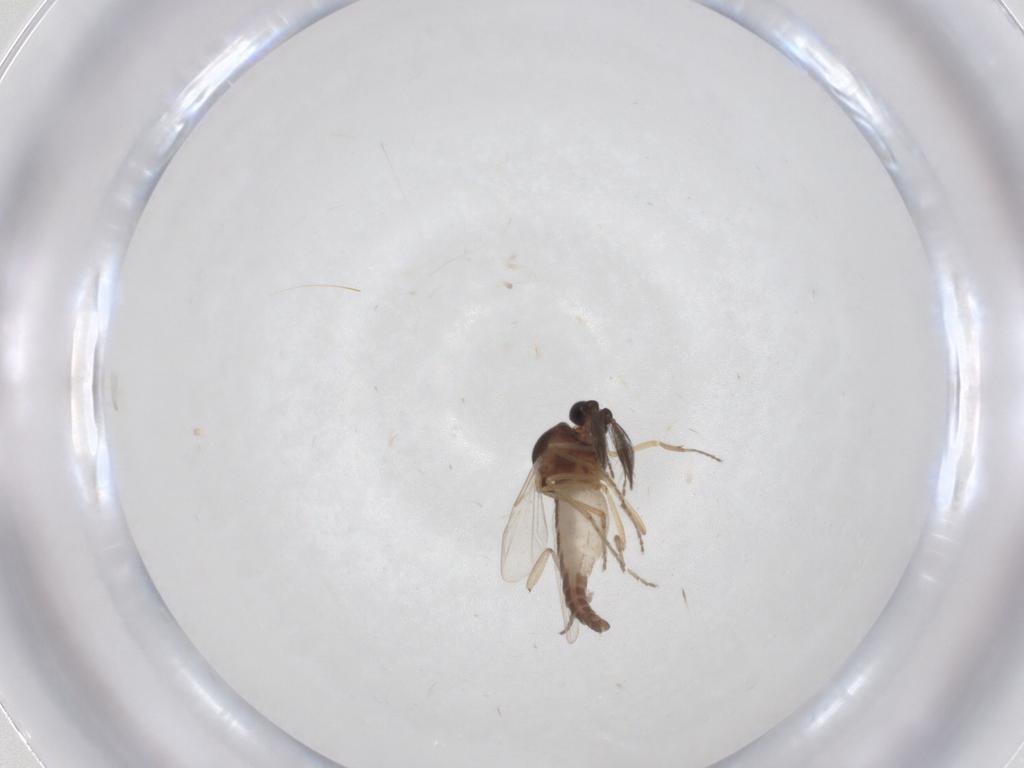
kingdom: Animalia
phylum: Arthropoda
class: Insecta
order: Diptera
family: Ceratopogonidae
